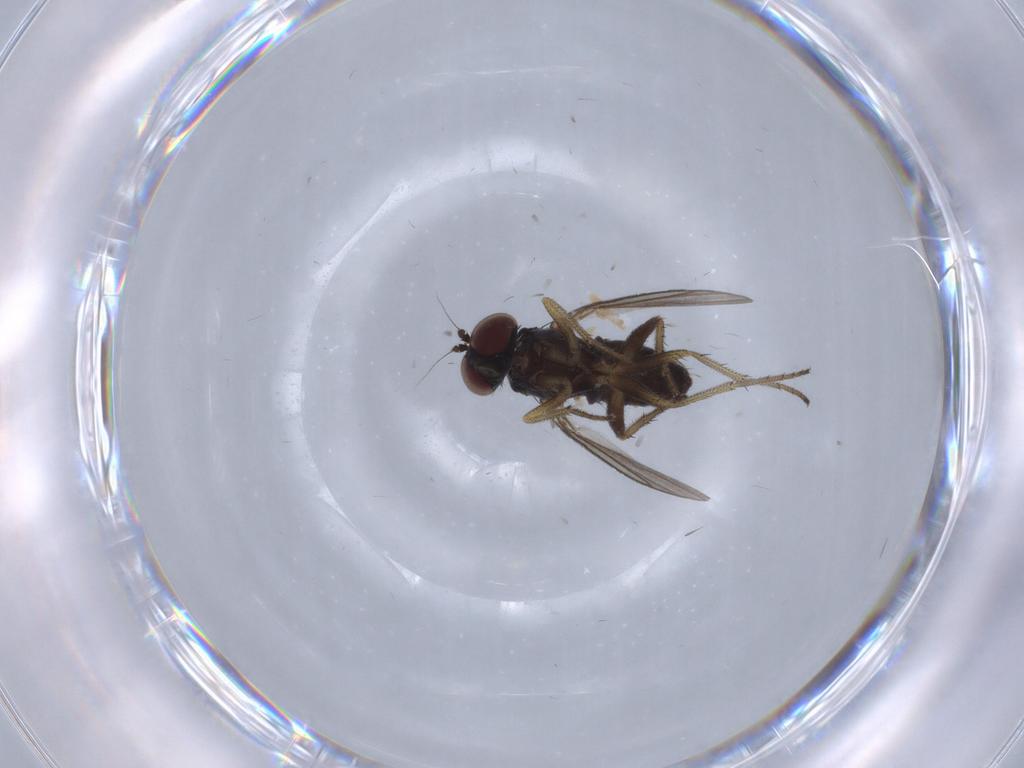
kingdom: Animalia
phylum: Arthropoda
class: Insecta
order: Diptera
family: Dolichopodidae
